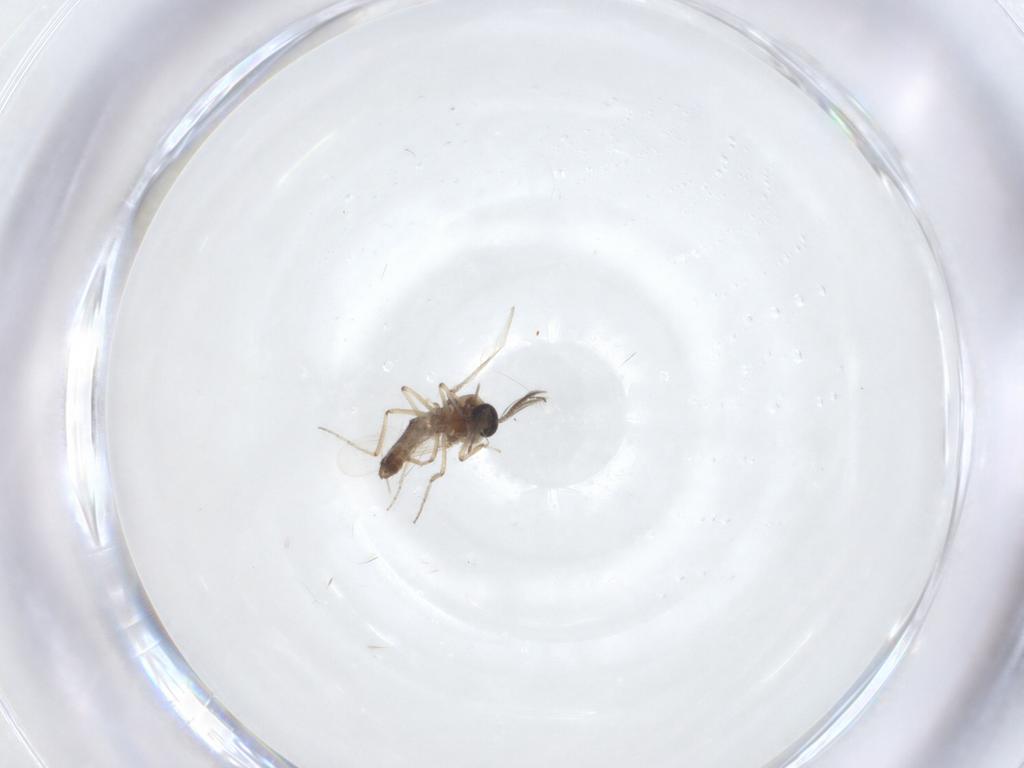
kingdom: Animalia
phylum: Arthropoda
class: Insecta
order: Diptera
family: Ceratopogonidae
